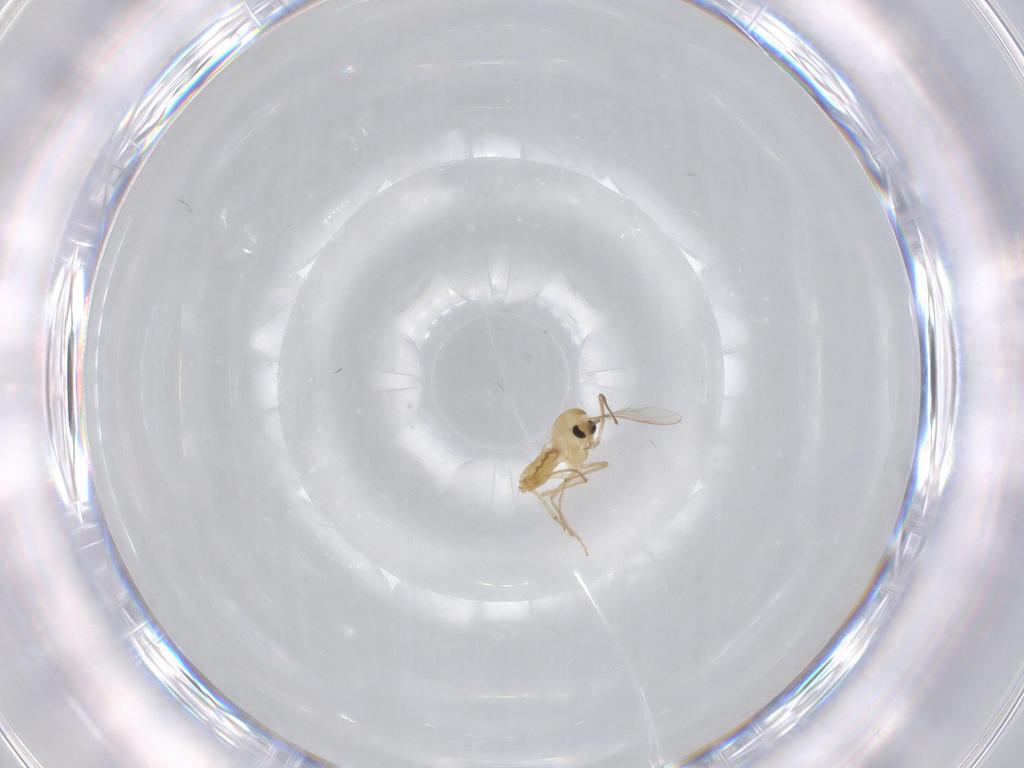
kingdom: Animalia
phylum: Arthropoda
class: Insecta
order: Diptera
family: Chironomidae
